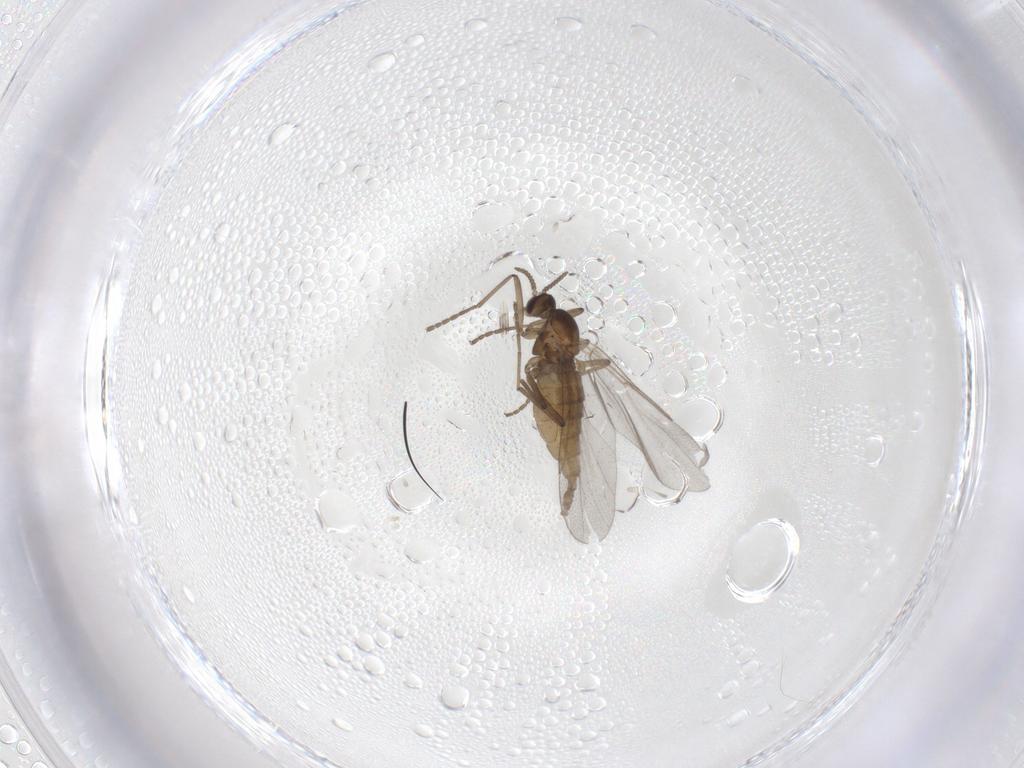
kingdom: Animalia
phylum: Arthropoda
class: Insecta
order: Diptera
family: Cecidomyiidae
